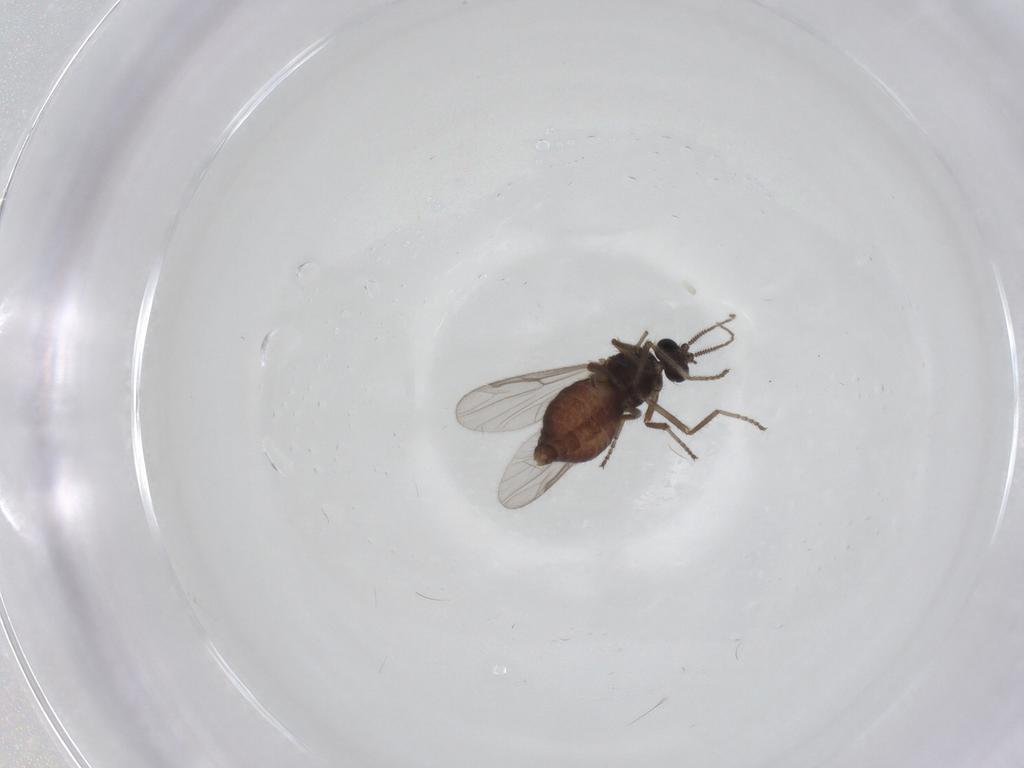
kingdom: Animalia
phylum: Arthropoda
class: Insecta
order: Diptera
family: Ceratopogonidae
